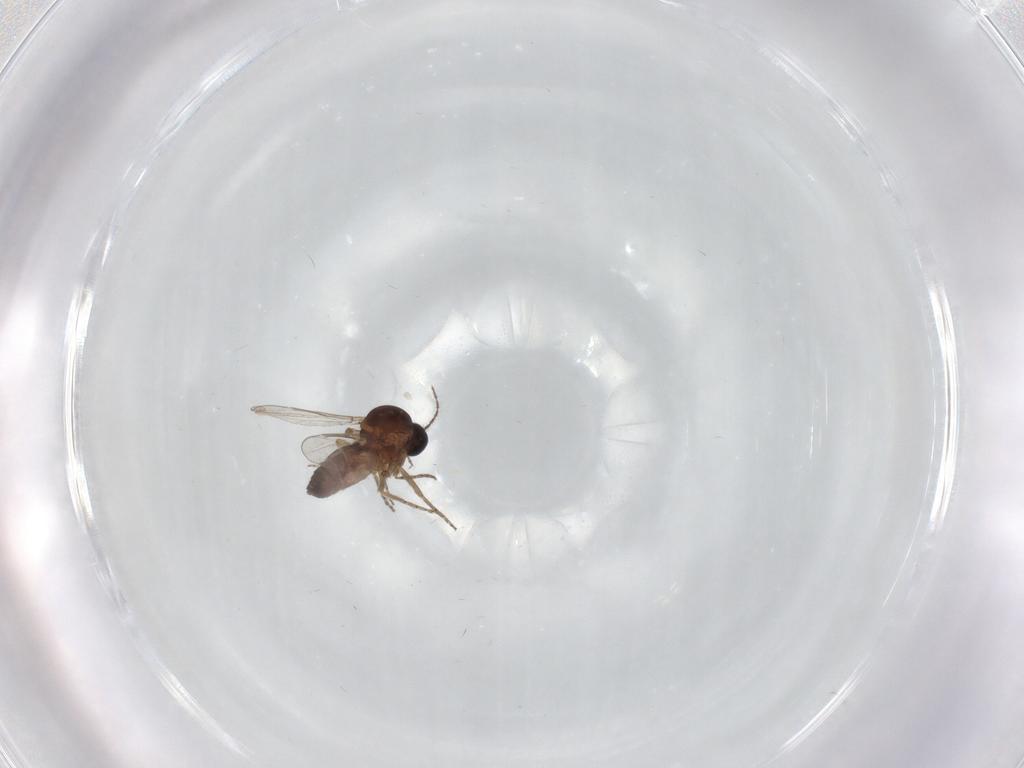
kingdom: Animalia
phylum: Arthropoda
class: Insecta
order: Diptera
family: Ceratopogonidae
